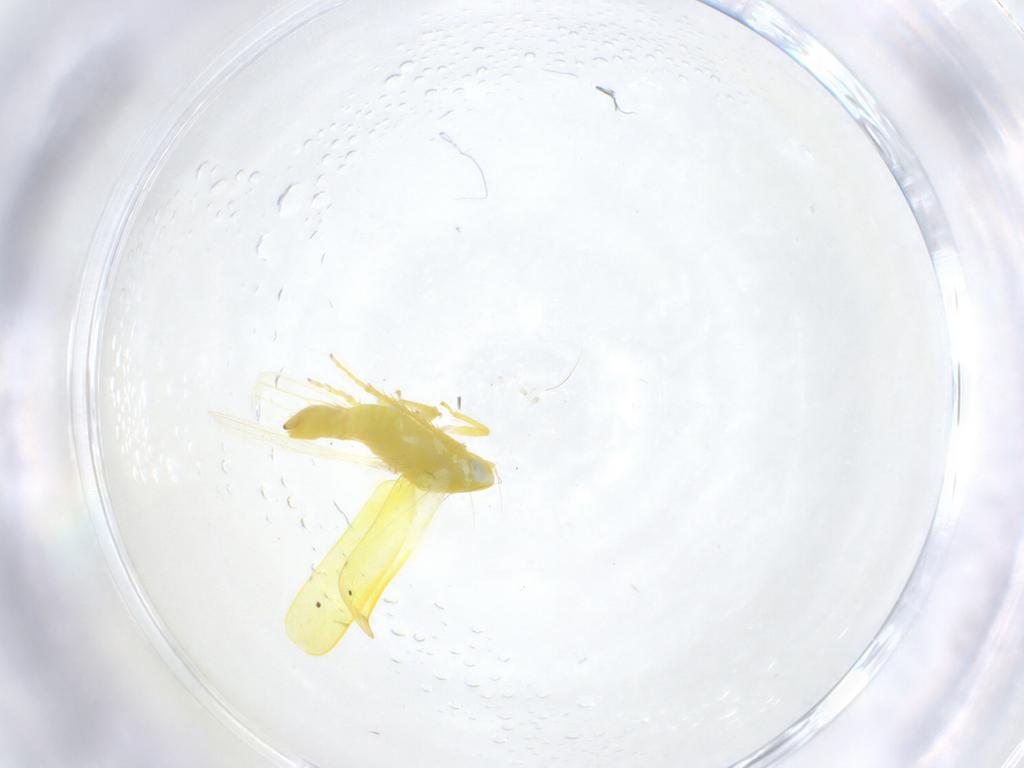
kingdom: Animalia
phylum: Arthropoda
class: Insecta
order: Hemiptera
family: Cicadellidae
